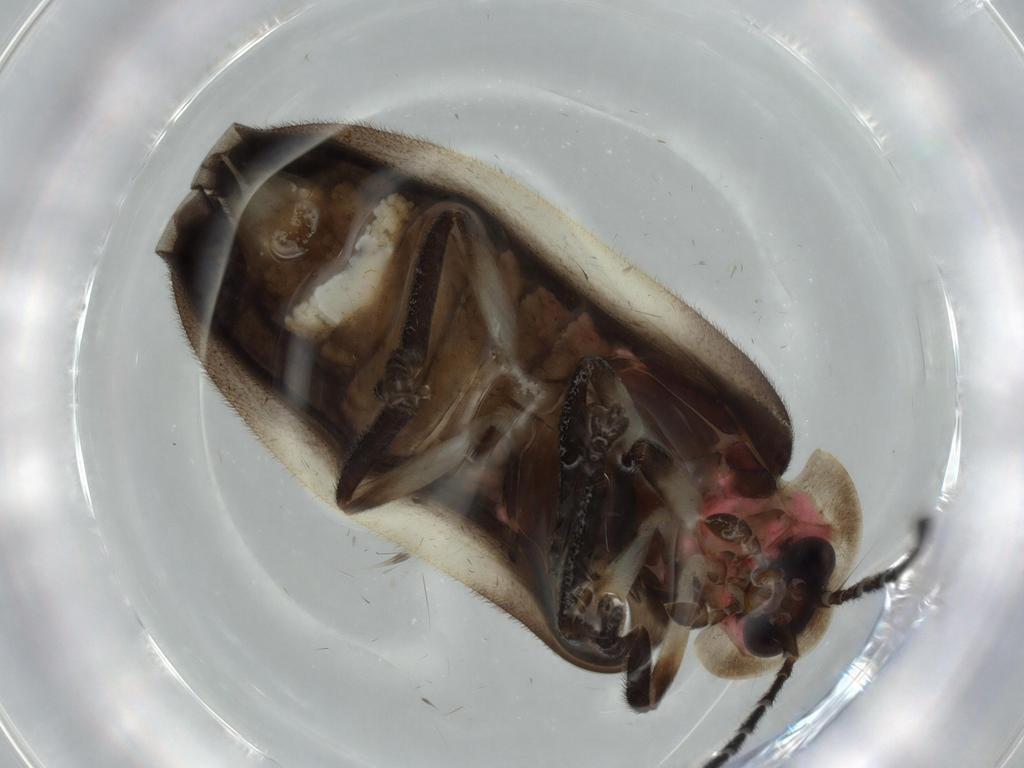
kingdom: Animalia
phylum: Arthropoda
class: Insecta
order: Coleoptera
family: Lampyridae
